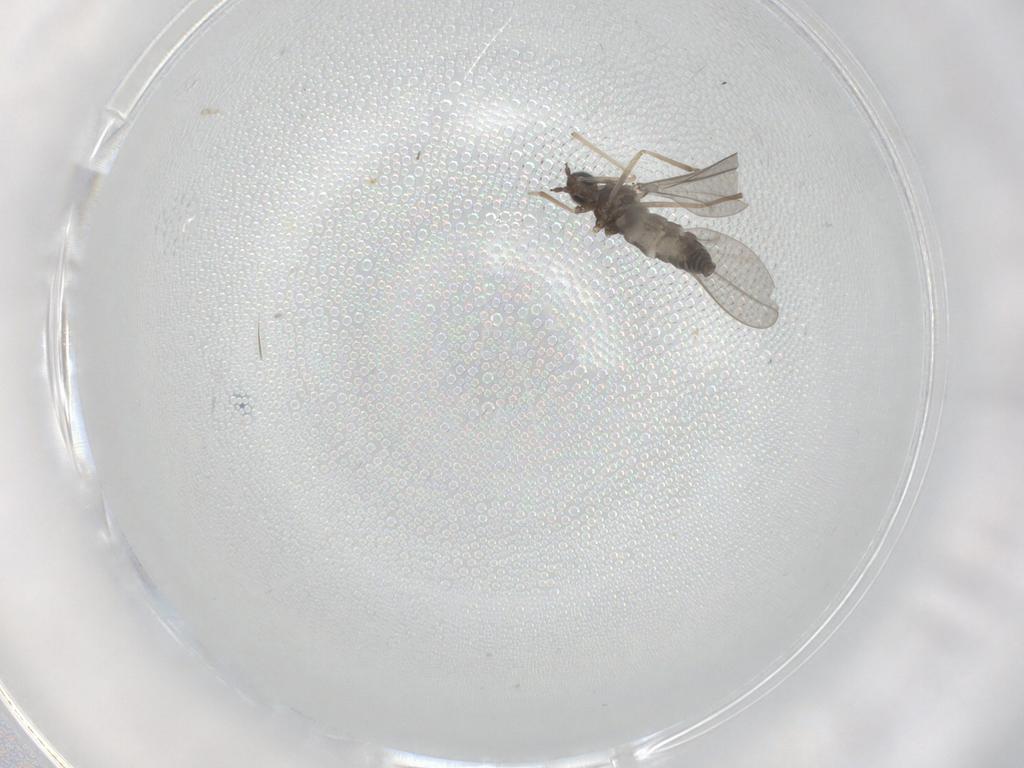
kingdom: Animalia
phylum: Arthropoda
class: Insecta
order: Diptera
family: Cecidomyiidae
